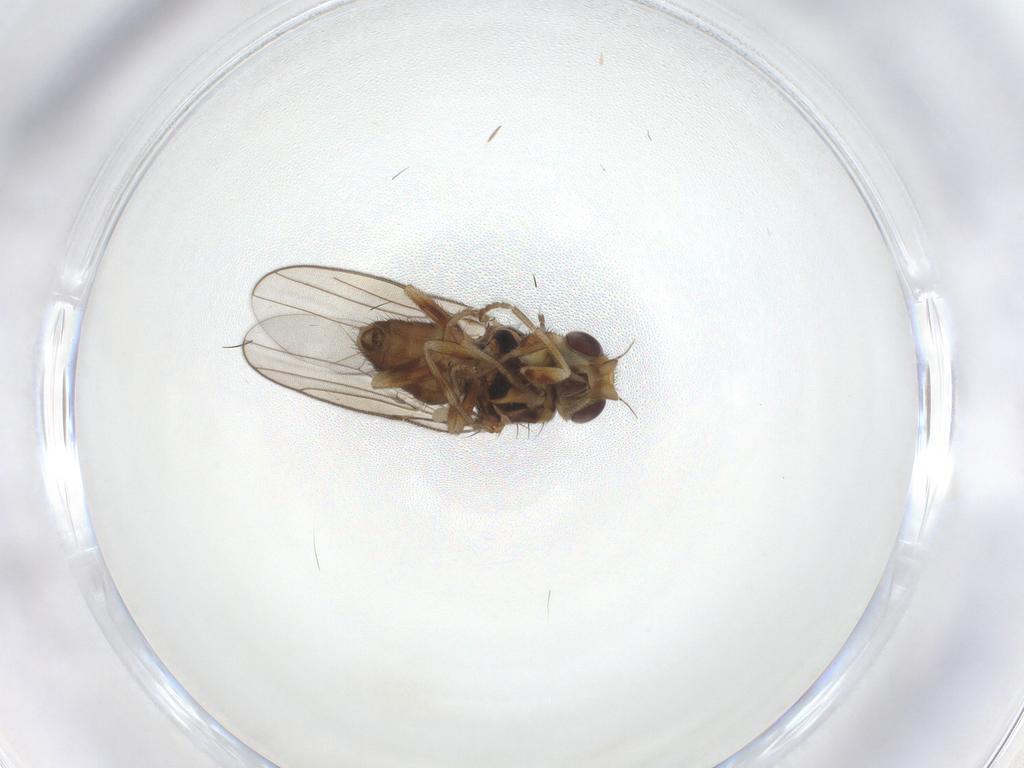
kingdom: Animalia
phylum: Arthropoda
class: Insecta
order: Diptera
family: Chloropidae
